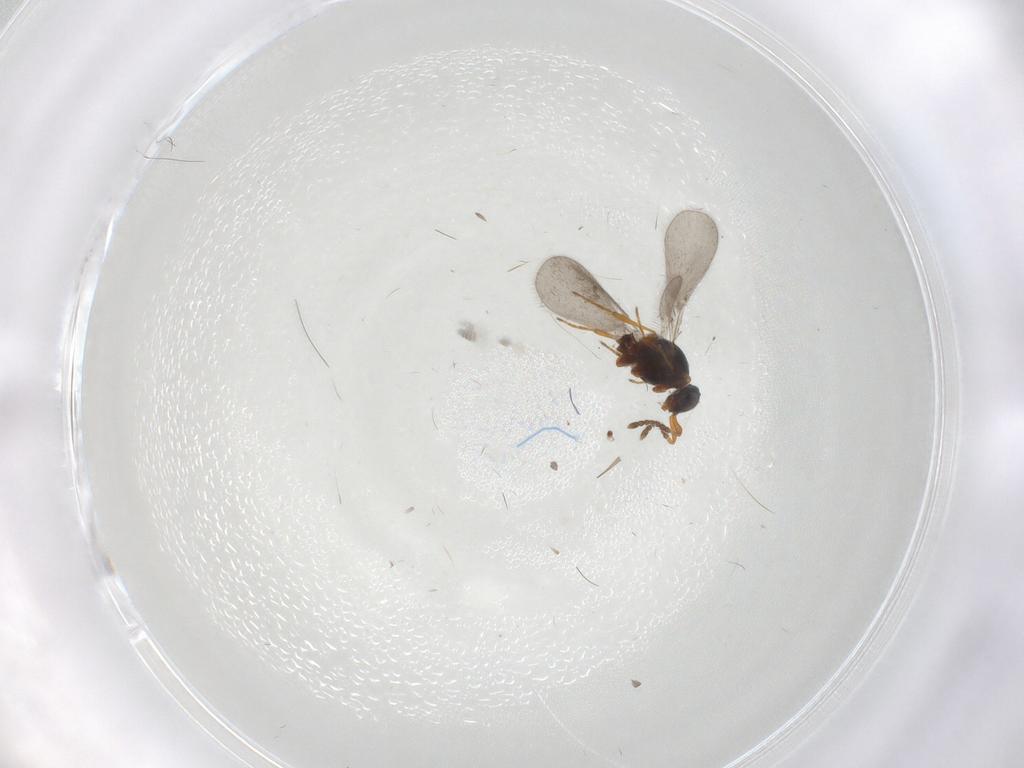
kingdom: Animalia
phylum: Arthropoda
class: Insecta
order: Hymenoptera
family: Platygastridae
